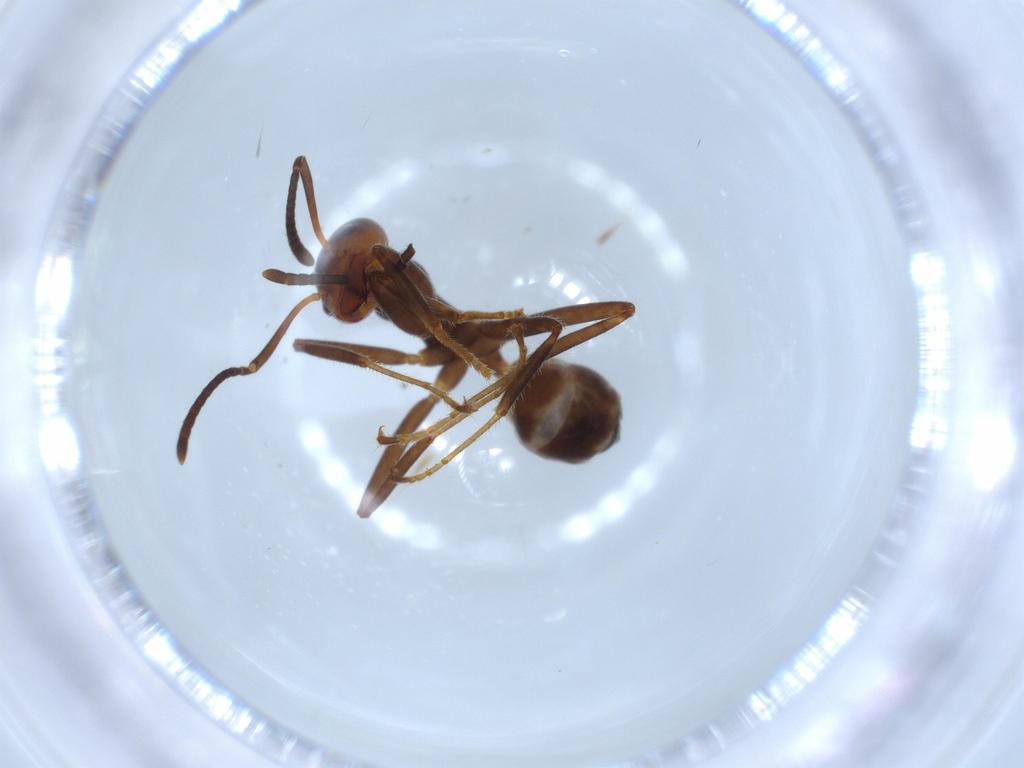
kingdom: Animalia
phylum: Arthropoda
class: Insecta
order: Hymenoptera
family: Formicidae
